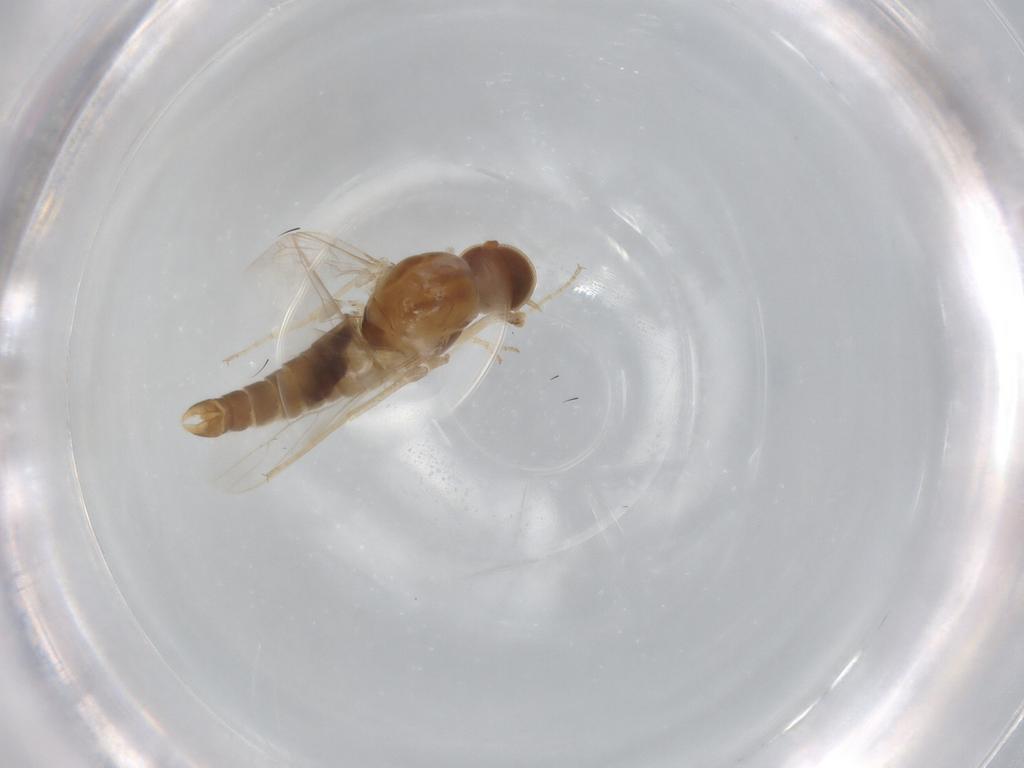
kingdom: Animalia
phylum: Arthropoda
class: Insecta
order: Diptera
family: Scenopinidae
